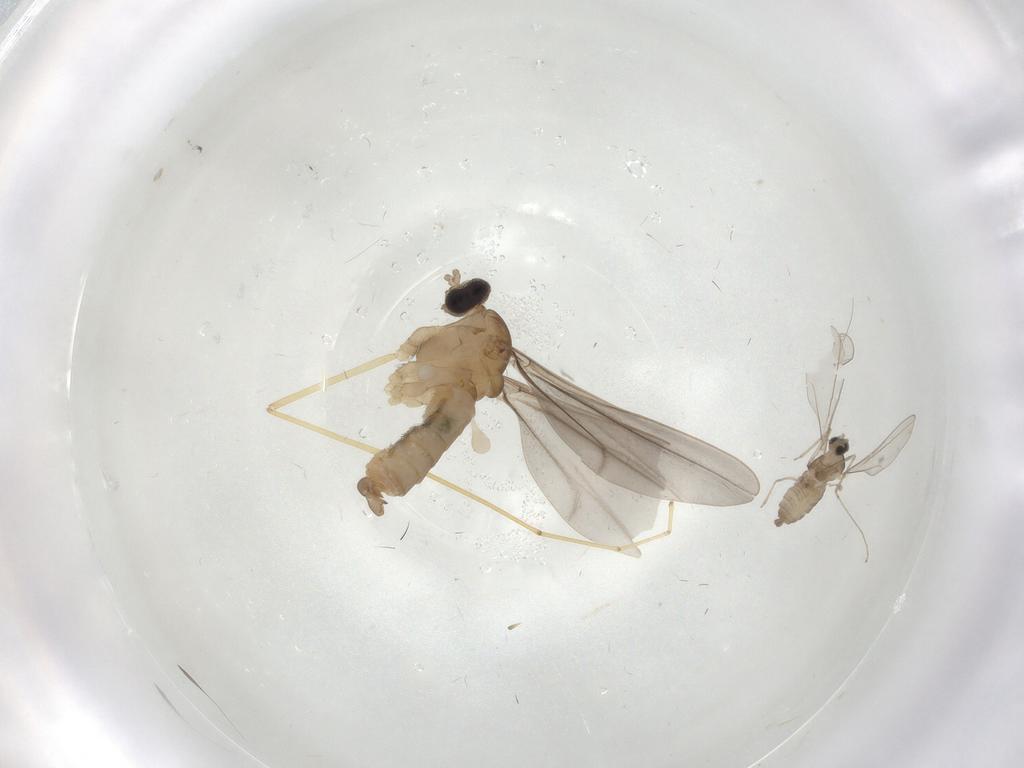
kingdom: Animalia
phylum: Arthropoda
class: Insecta
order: Diptera
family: Cecidomyiidae
